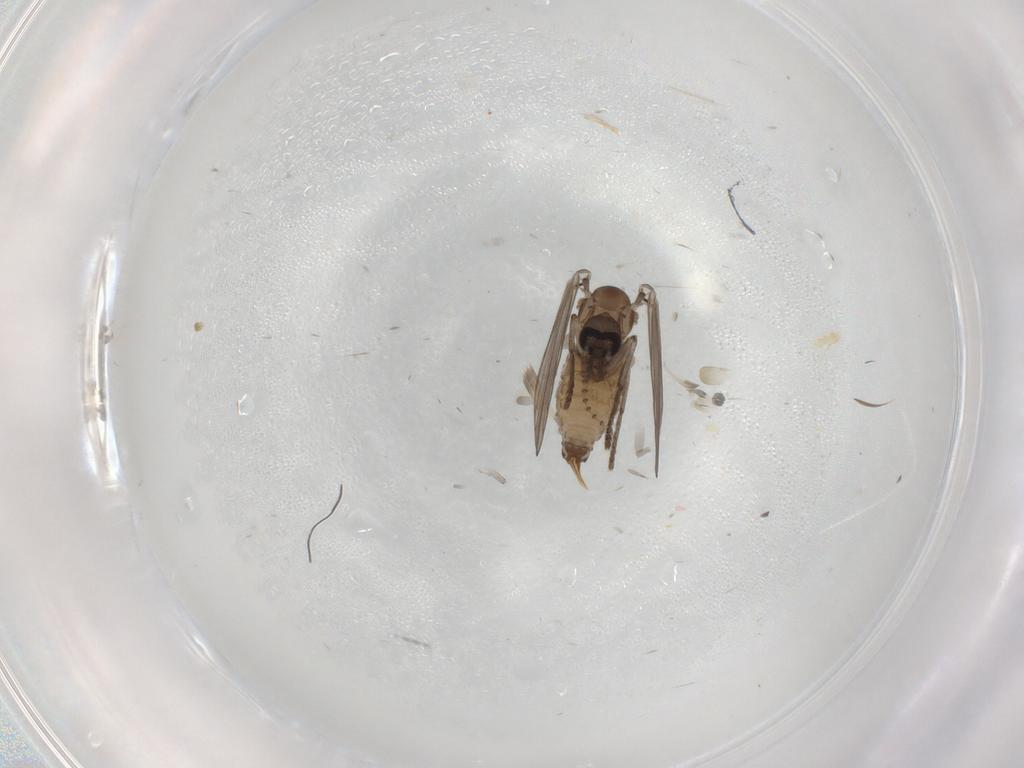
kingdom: Animalia
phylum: Arthropoda
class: Insecta
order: Diptera
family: Psychodidae
